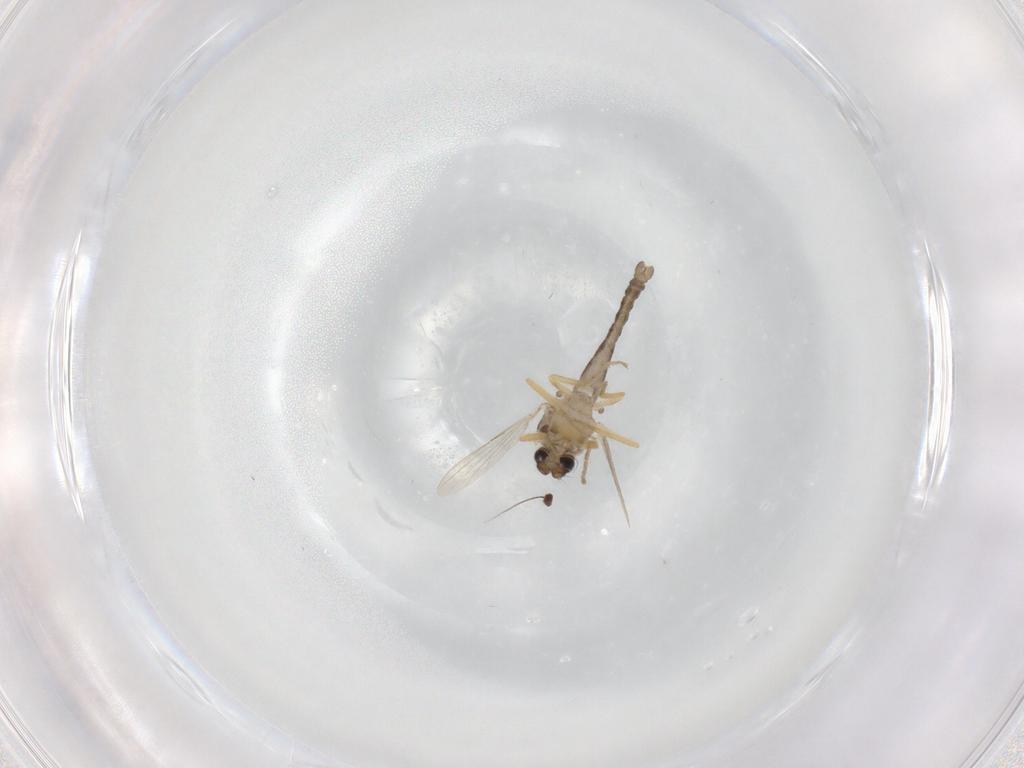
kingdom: Animalia
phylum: Arthropoda
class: Insecta
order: Diptera
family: Ceratopogonidae
